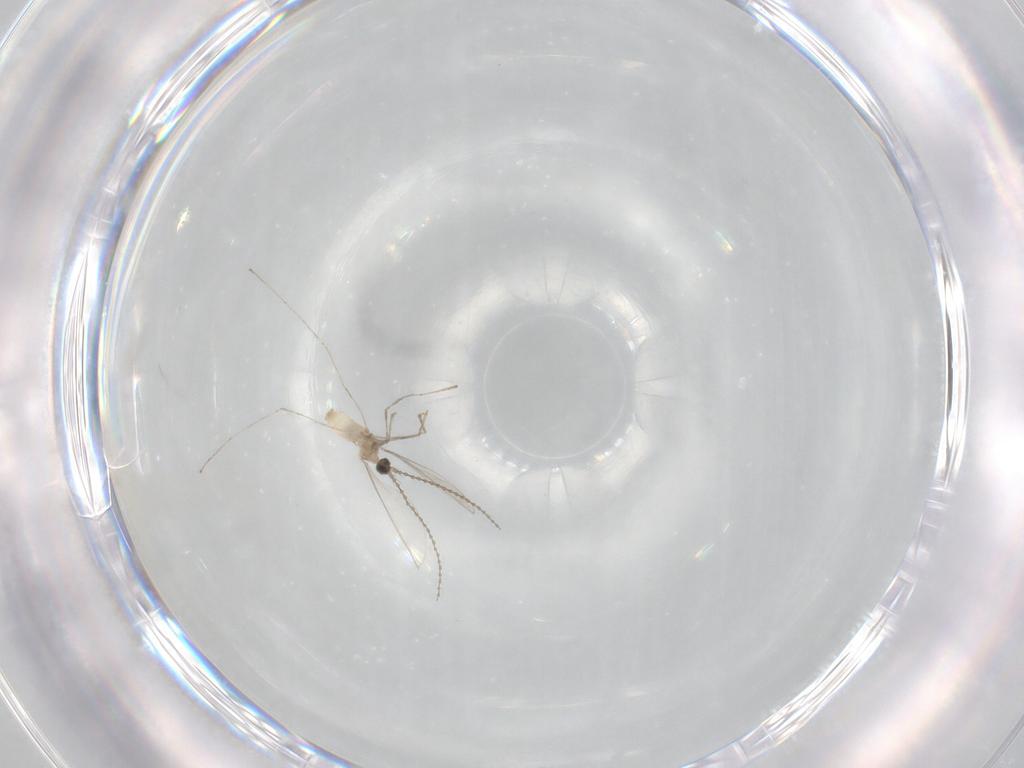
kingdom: Animalia
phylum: Arthropoda
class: Insecta
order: Diptera
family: Cecidomyiidae
